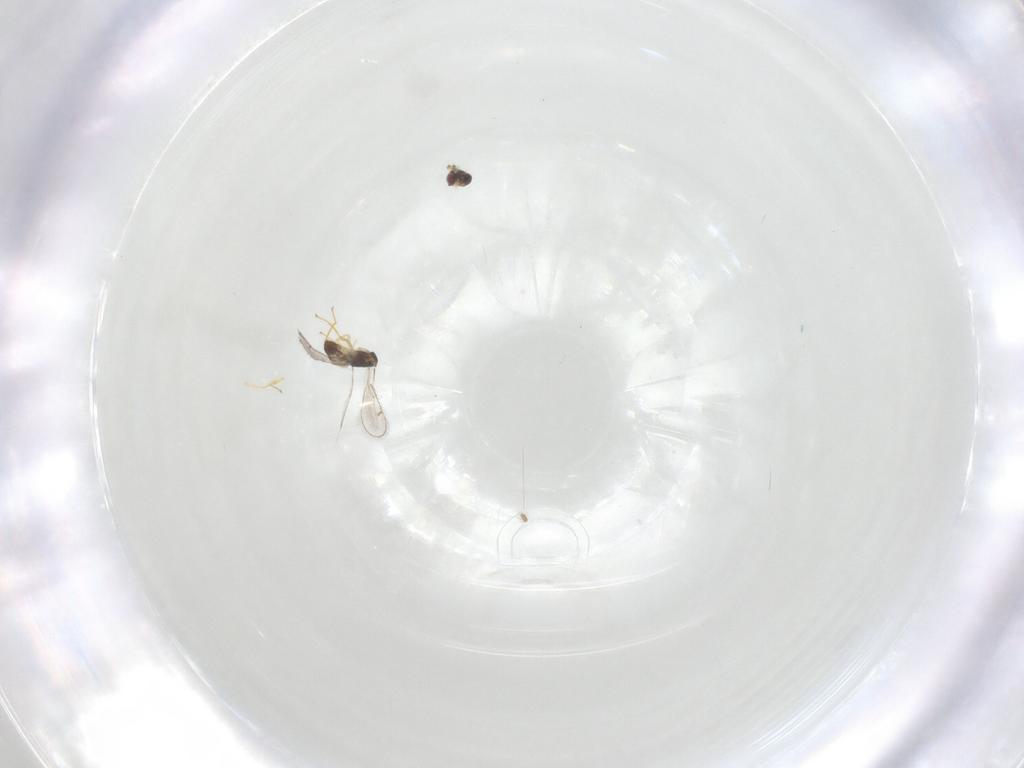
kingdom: Animalia
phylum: Arthropoda
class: Insecta
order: Hymenoptera
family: Eulophidae
